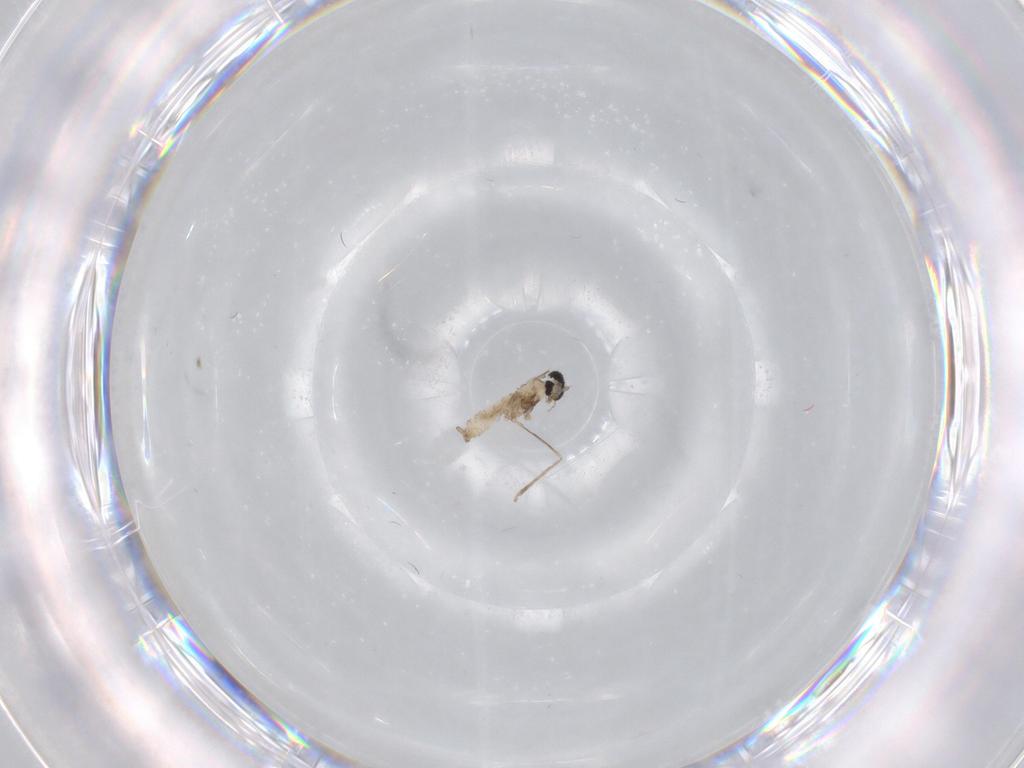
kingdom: Animalia
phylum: Arthropoda
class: Insecta
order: Diptera
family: Cecidomyiidae
